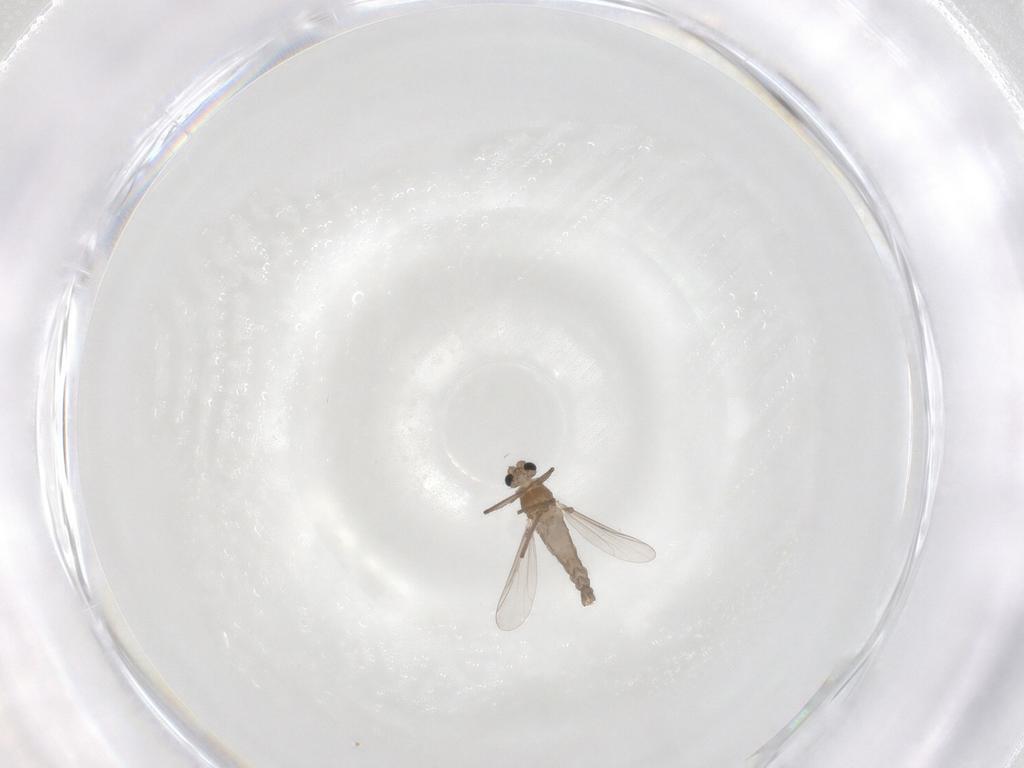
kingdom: Animalia
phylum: Arthropoda
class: Insecta
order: Diptera
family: Chironomidae
